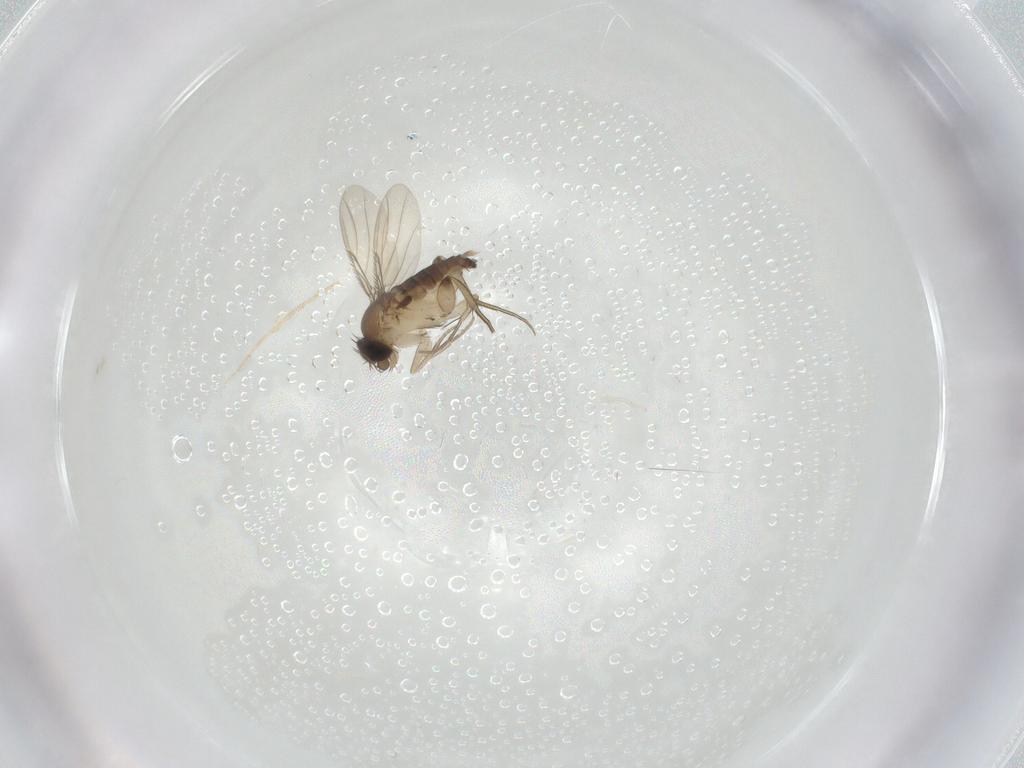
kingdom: Animalia
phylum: Arthropoda
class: Insecta
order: Diptera
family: Phoridae
